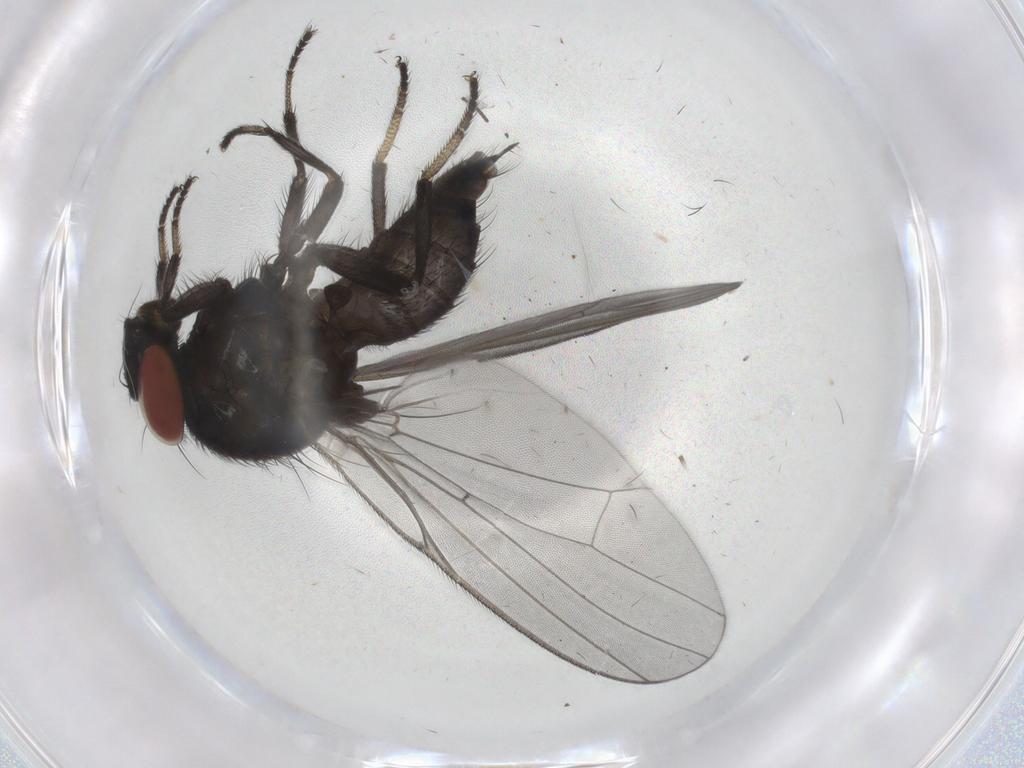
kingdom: Animalia
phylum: Arthropoda
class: Insecta
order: Diptera
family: Lonchaeidae
